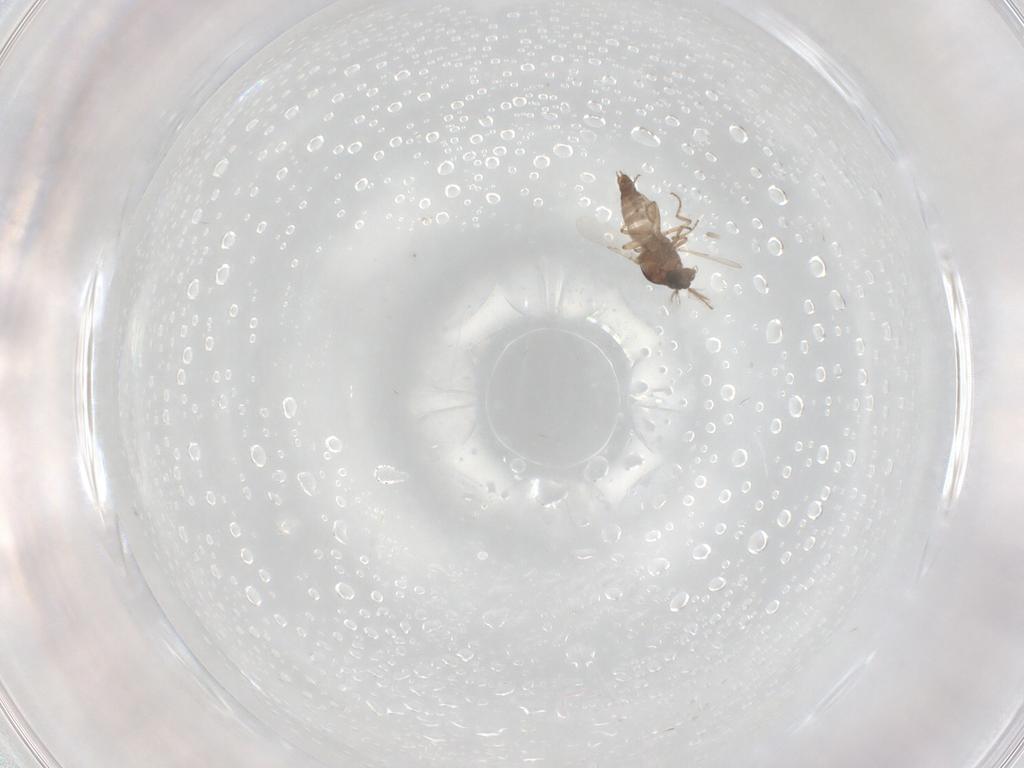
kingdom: Animalia
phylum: Arthropoda
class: Insecta
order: Diptera
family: Ceratopogonidae
